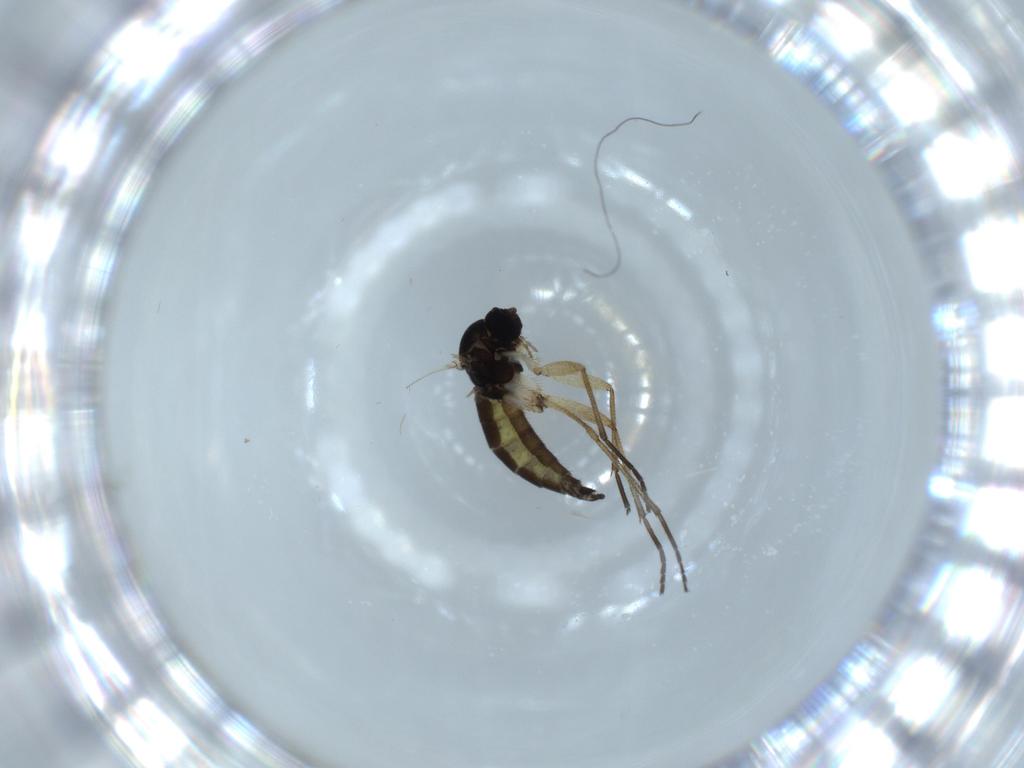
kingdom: Animalia
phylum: Arthropoda
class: Insecta
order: Diptera
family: Sciaridae
